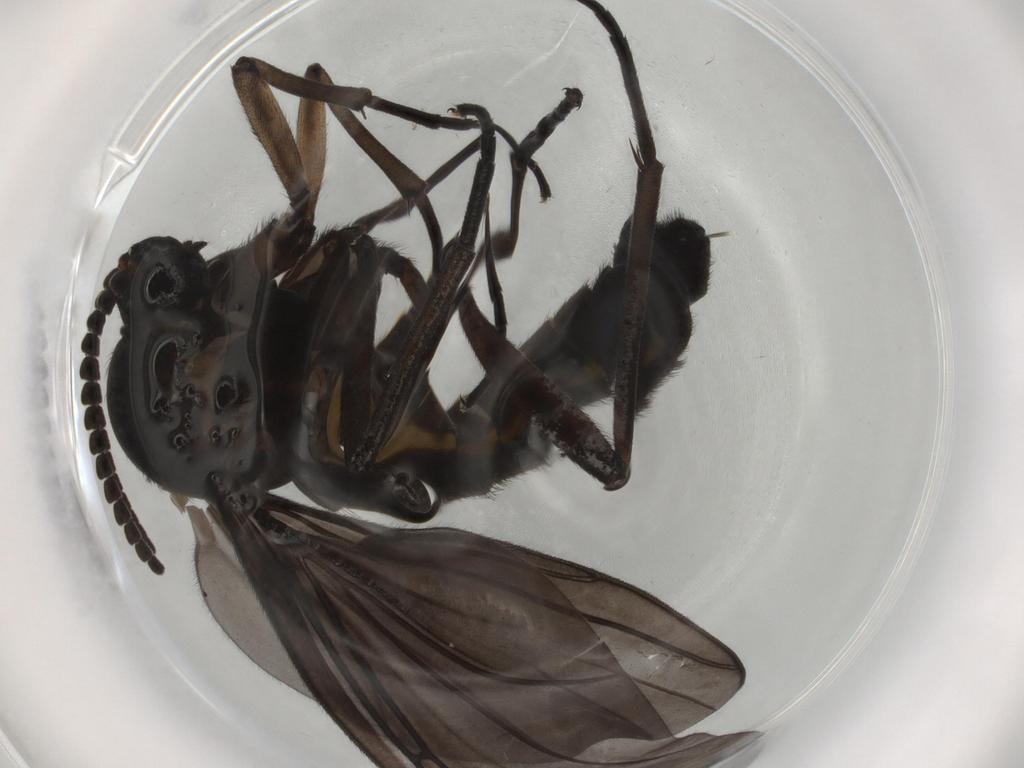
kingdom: Animalia
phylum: Arthropoda
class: Insecta
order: Diptera
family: Sciaridae
